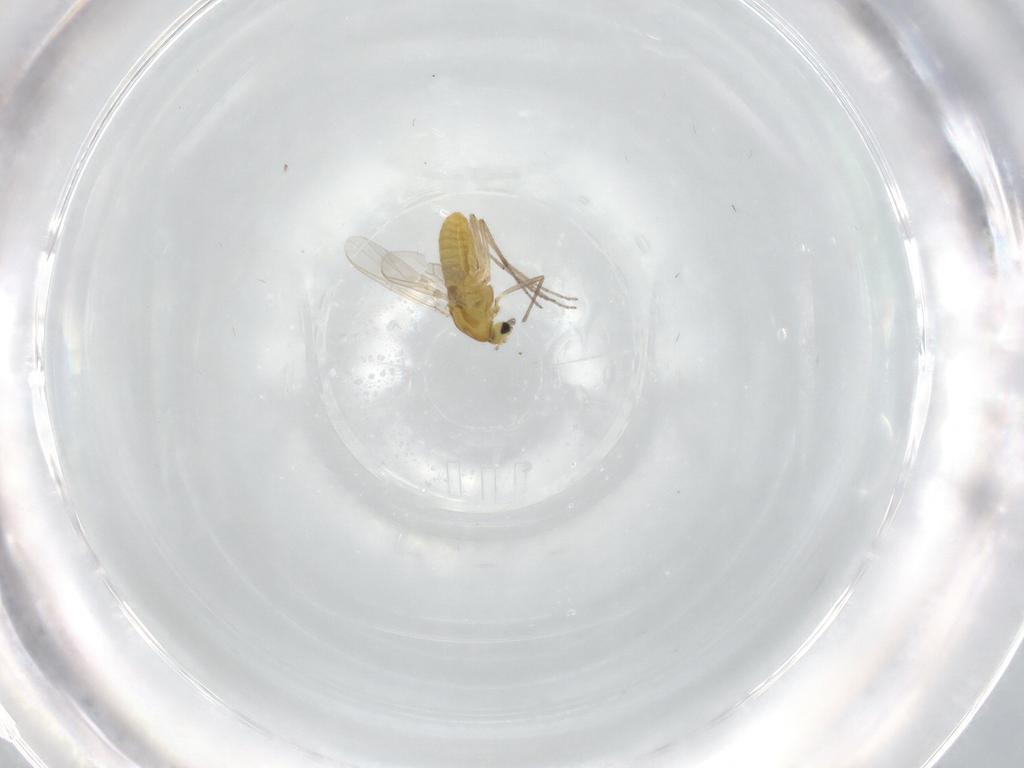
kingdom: Animalia
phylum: Arthropoda
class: Insecta
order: Diptera
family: Chironomidae
